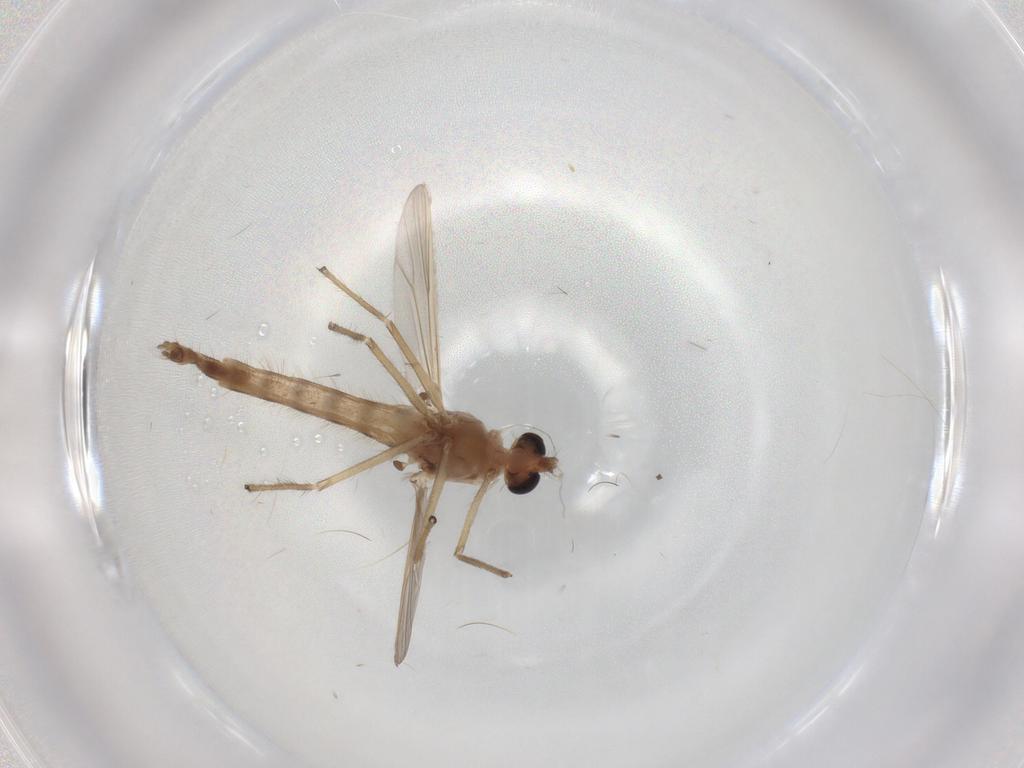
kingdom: Animalia
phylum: Arthropoda
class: Insecta
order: Diptera
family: Chironomidae
